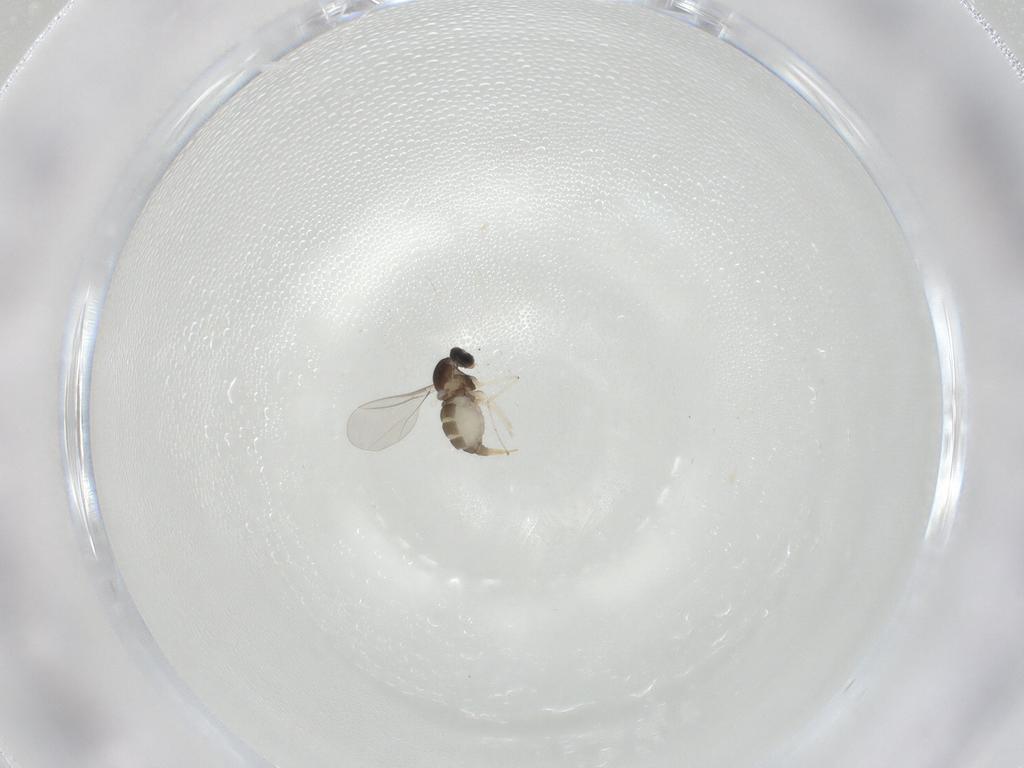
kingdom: Animalia
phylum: Arthropoda
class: Insecta
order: Diptera
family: Cecidomyiidae
